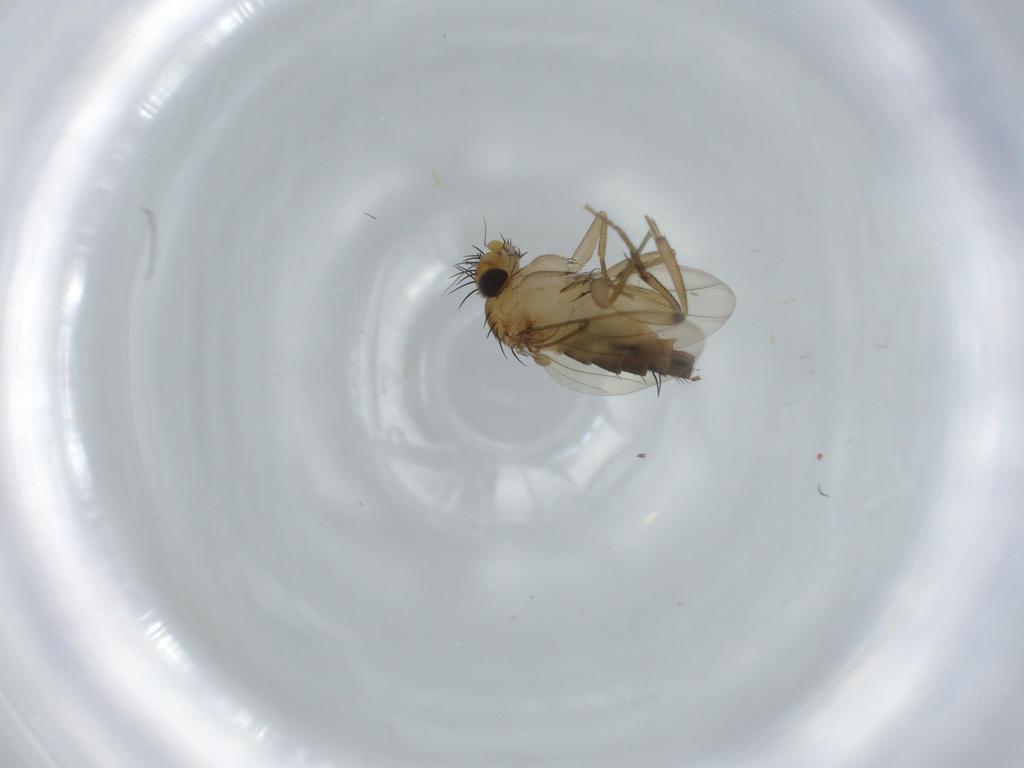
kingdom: Animalia
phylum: Arthropoda
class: Insecta
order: Diptera
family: Phoridae
